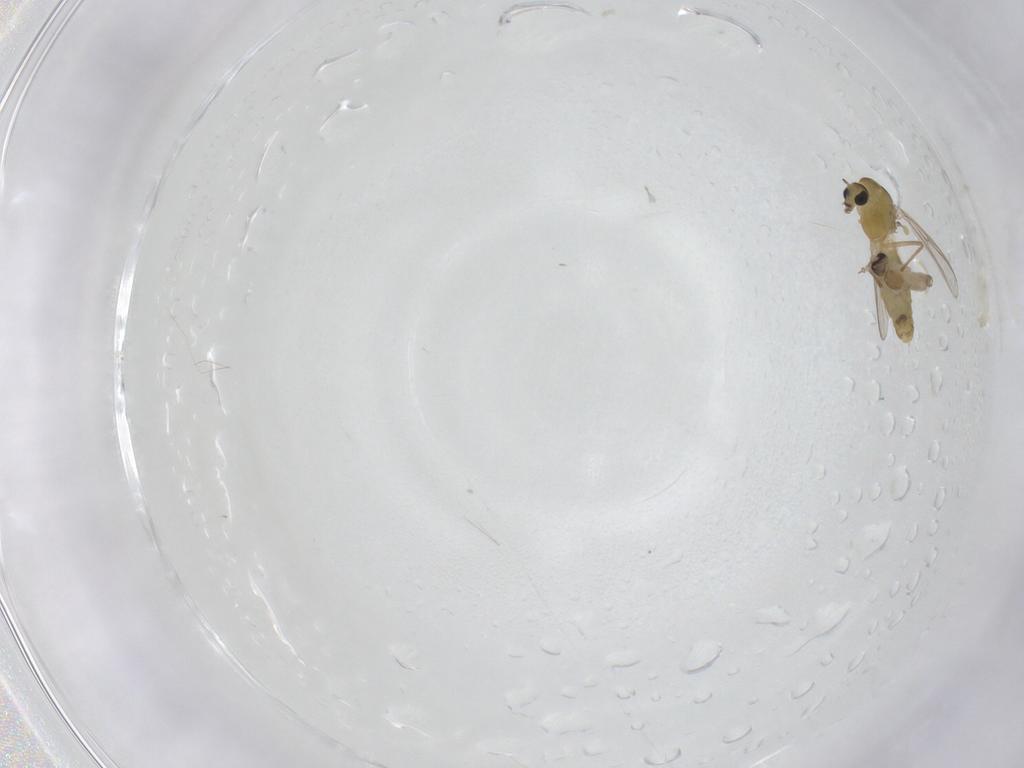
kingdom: Animalia
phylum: Arthropoda
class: Insecta
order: Diptera
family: Cecidomyiidae
